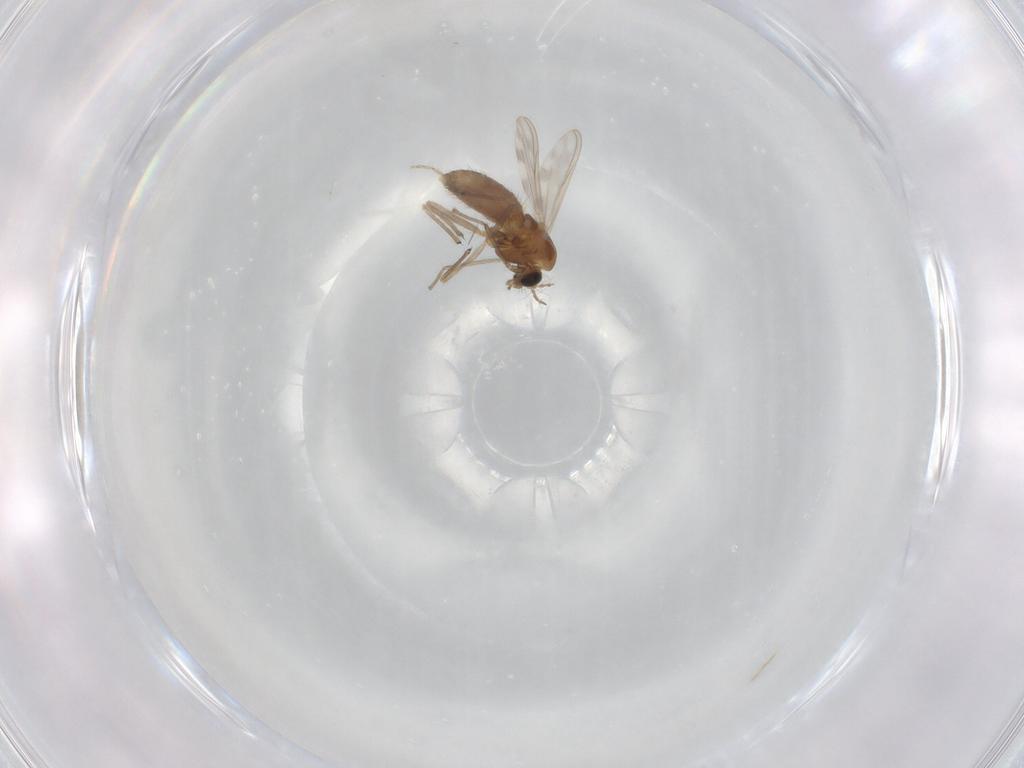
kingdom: Animalia
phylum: Arthropoda
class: Insecta
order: Diptera
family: Chironomidae
